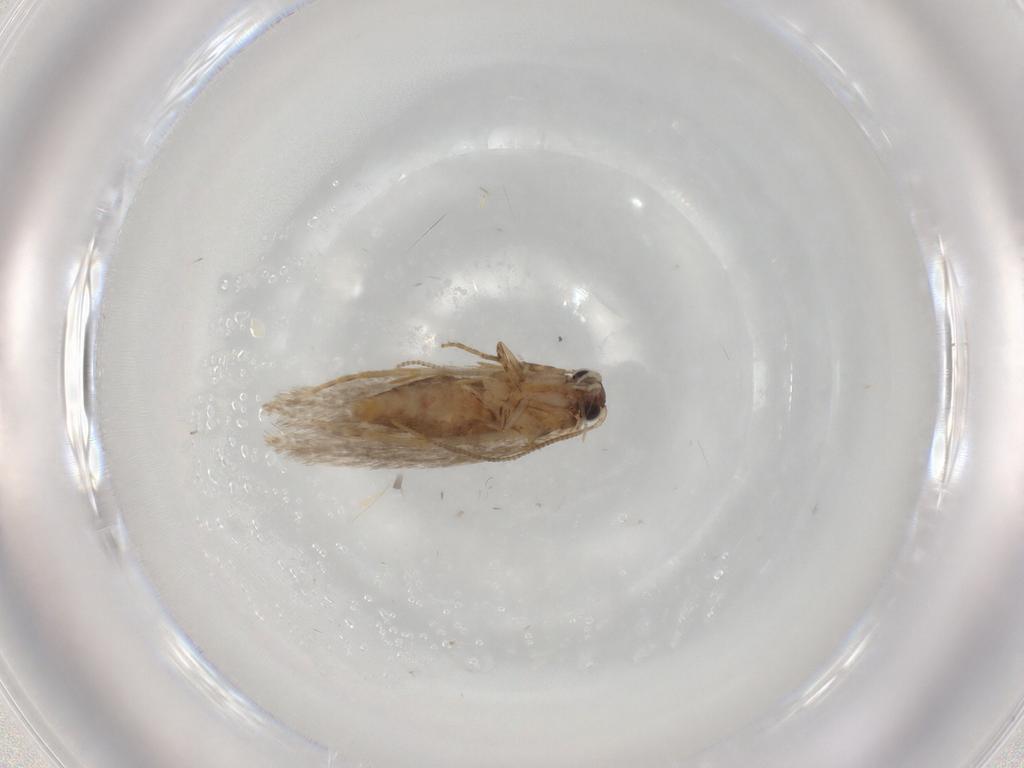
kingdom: Animalia
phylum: Arthropoda
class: Insecta
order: Lepidoptera
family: Tineidae
